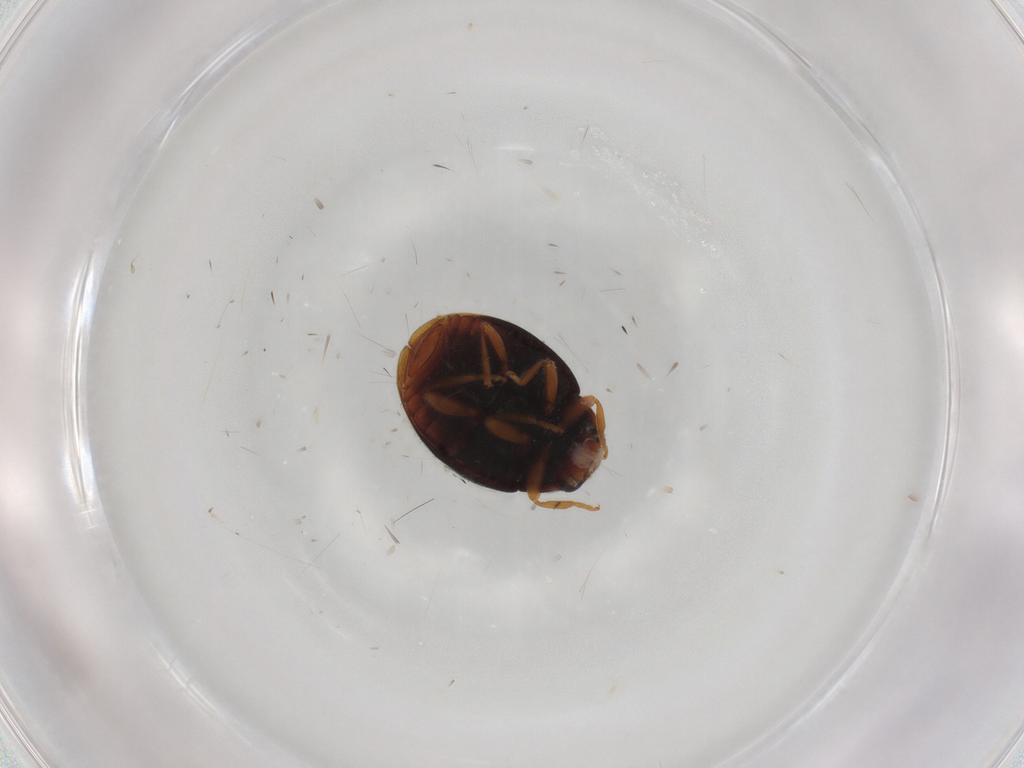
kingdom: Animalia
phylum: Arthropoda
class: Insecta
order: Coleoptera
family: Coccinellidae
